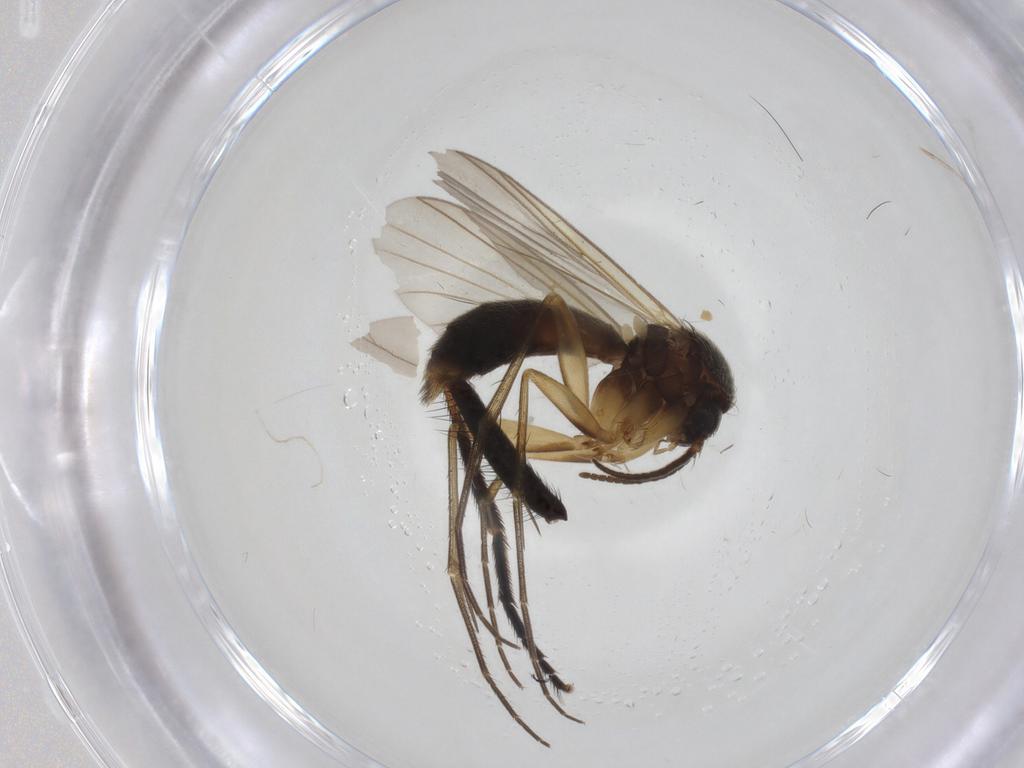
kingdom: Animalia
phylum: Arthropoda
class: Insecta
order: Diptera
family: Fannia
